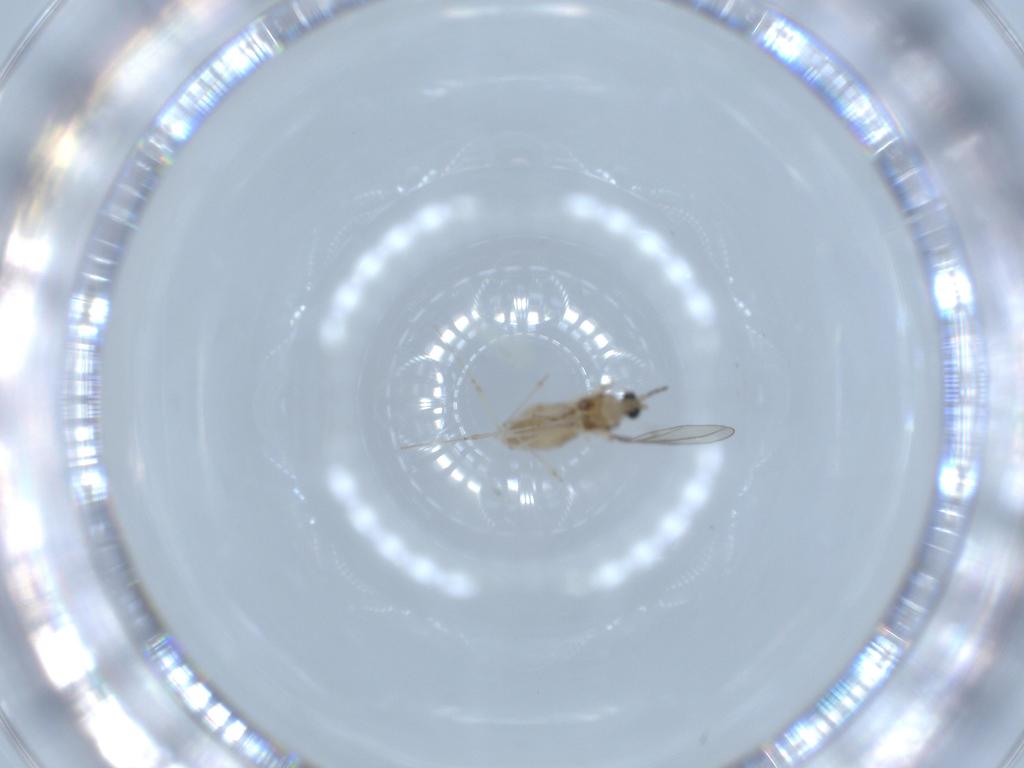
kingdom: Animalia
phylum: Arthropoda
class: Insecta
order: Diptera
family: Cecidomyiidae
